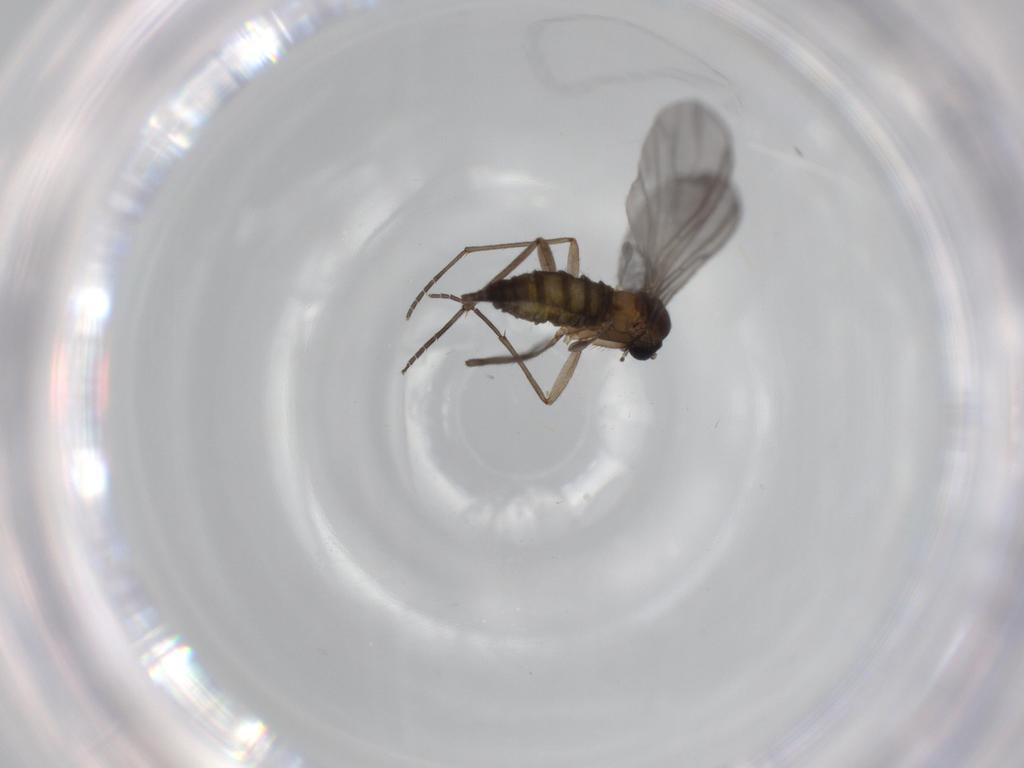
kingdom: Animalia
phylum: Arthropoda
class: Insecta
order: Diptera
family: Sciaridae
